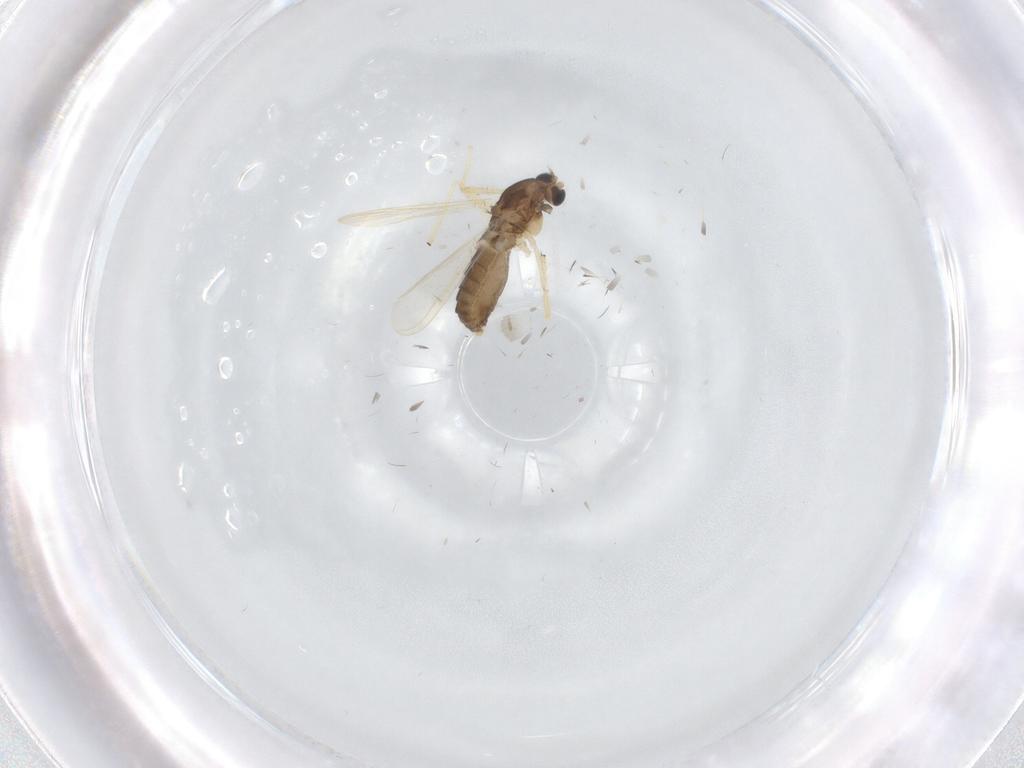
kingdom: Animalia
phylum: Arthropoda
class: Insecta
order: Diptera
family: Chironomidae
